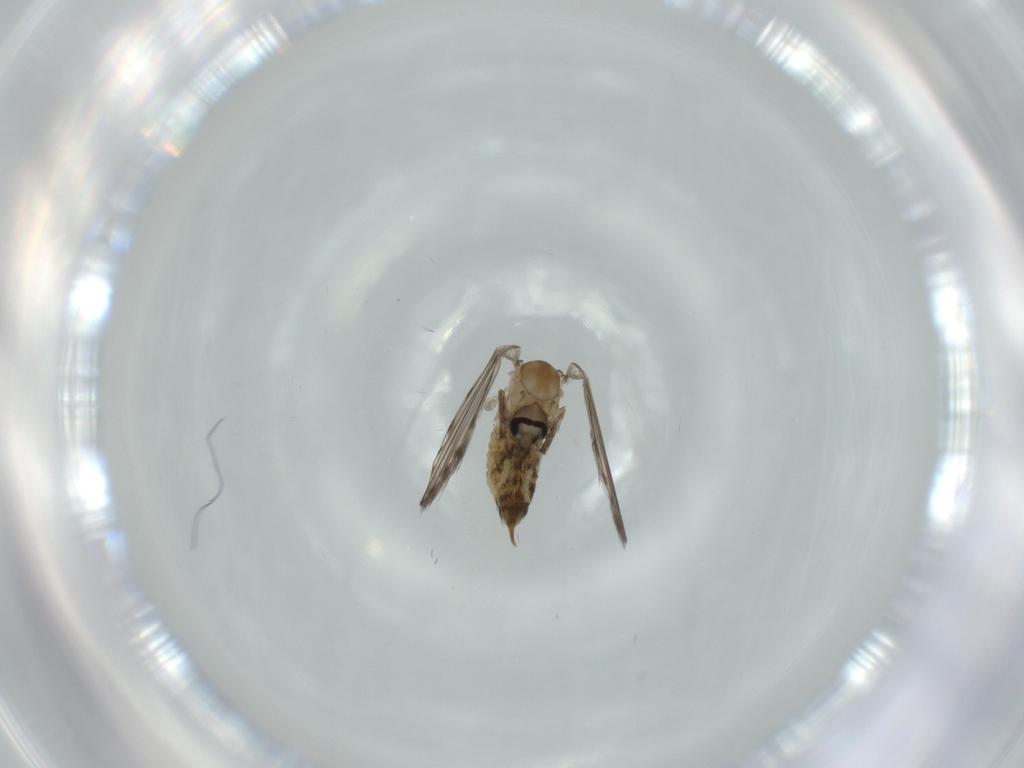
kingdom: Animalia
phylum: Arthropoda
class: Insecta
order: Diptera
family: Psychodidae
